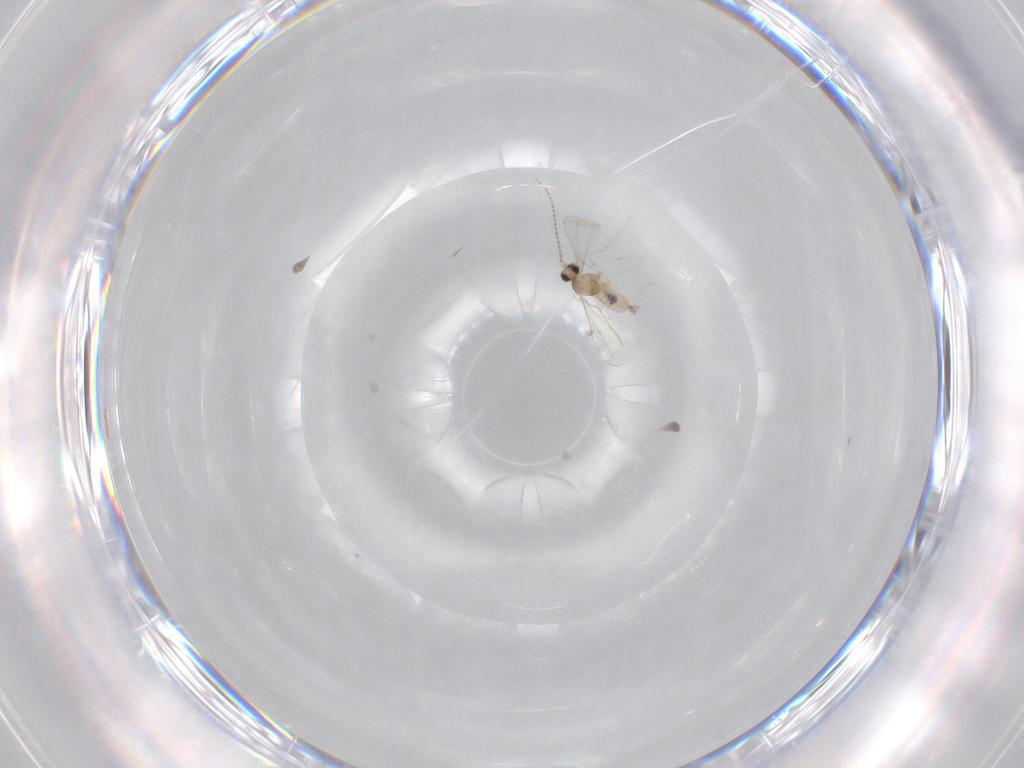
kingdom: Animalia
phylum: Arthropoda
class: Insecta
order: Diptera
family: Cecidomyiidae
